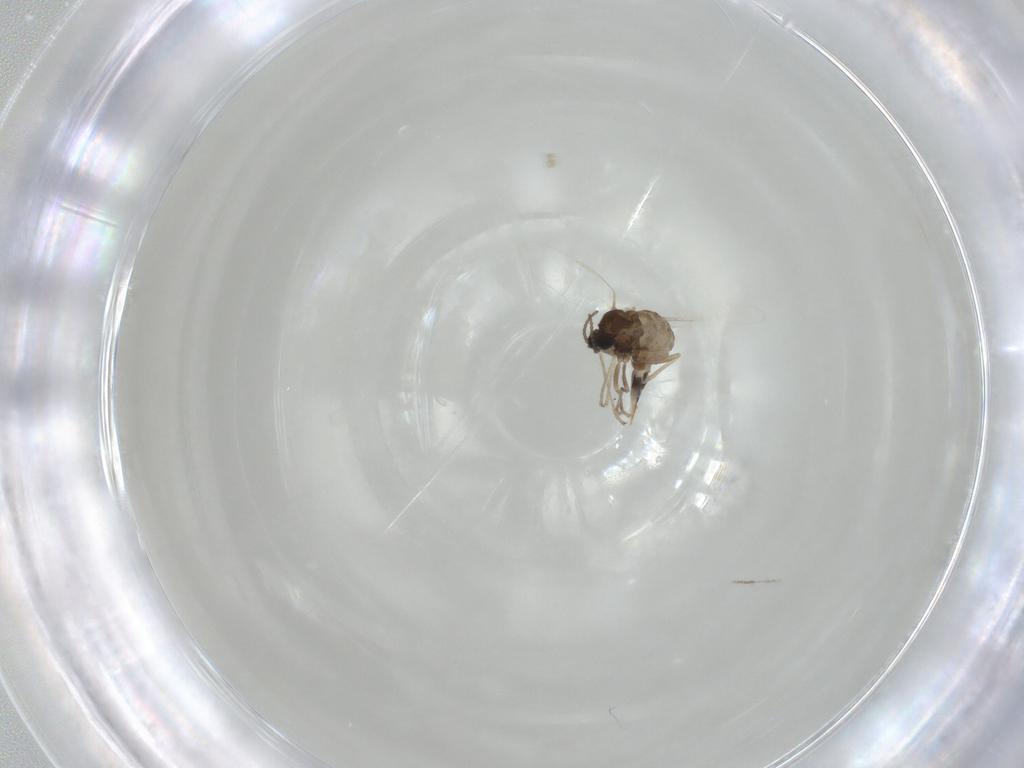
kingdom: Animalia
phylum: Arthropoda
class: Insecta
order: Diptera
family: Cecidomyiidae
